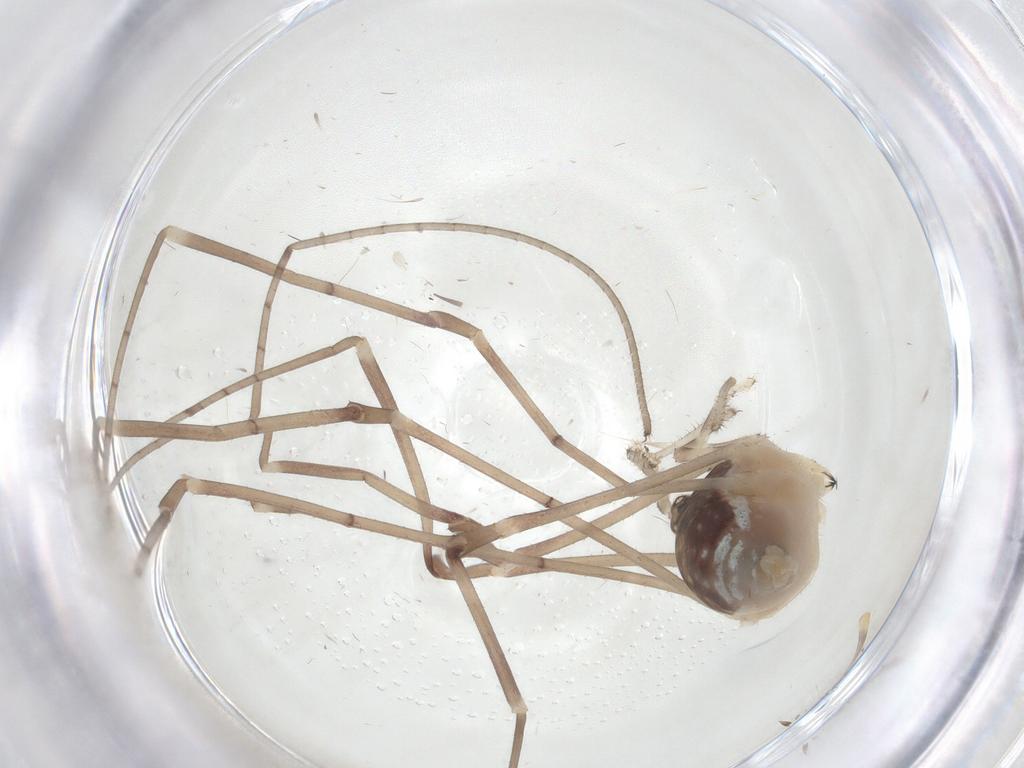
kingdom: Animalia
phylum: Arthropoda
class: Arachnida
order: Opiliones
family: Sclerosomatidae
